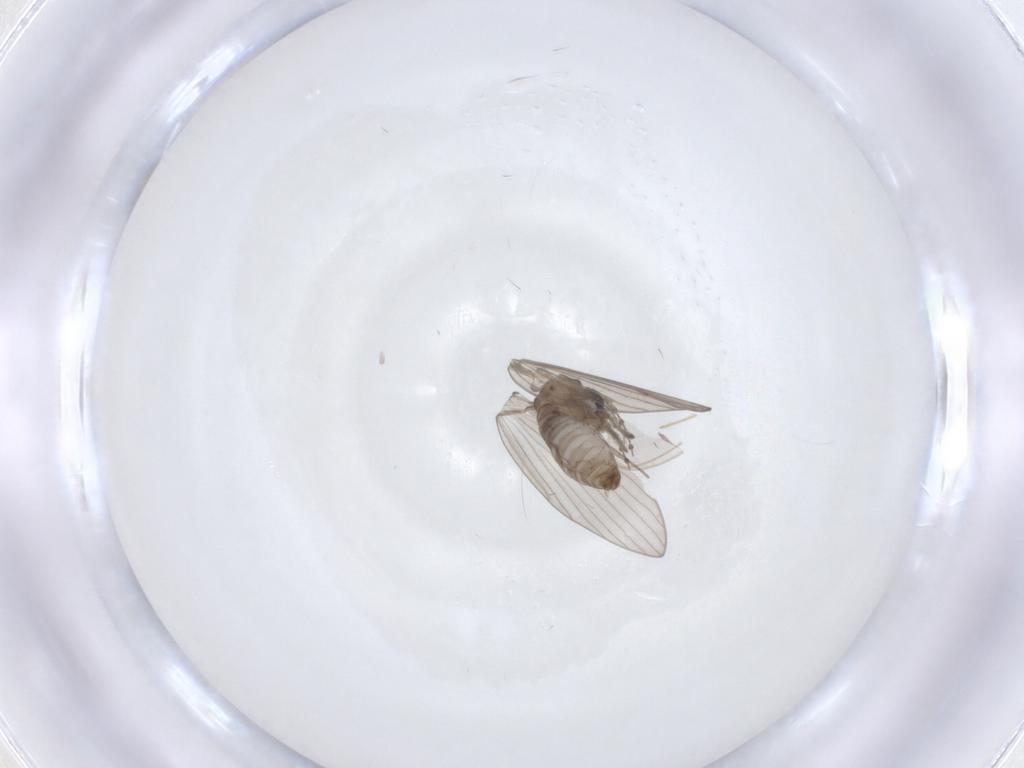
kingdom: Animalia
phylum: Arthropoda
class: Insecta
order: Diptera
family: Psychodidae
